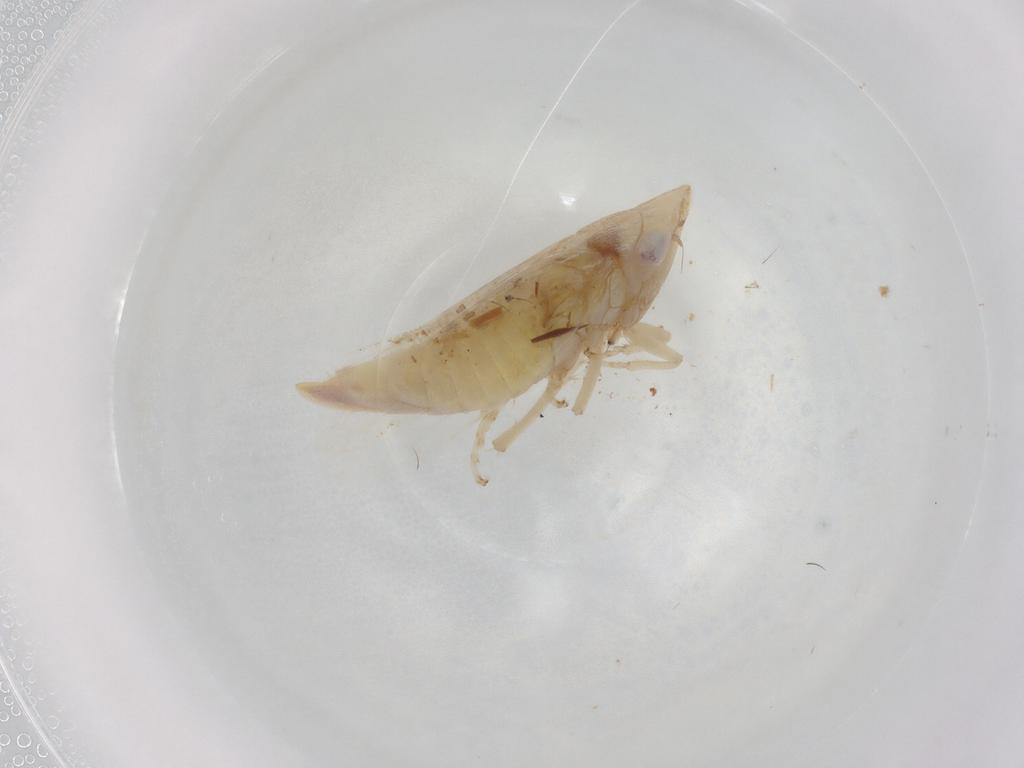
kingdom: Animalia
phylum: Arthropoda
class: Insecta
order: Hemiptera
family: Cicadellidae
